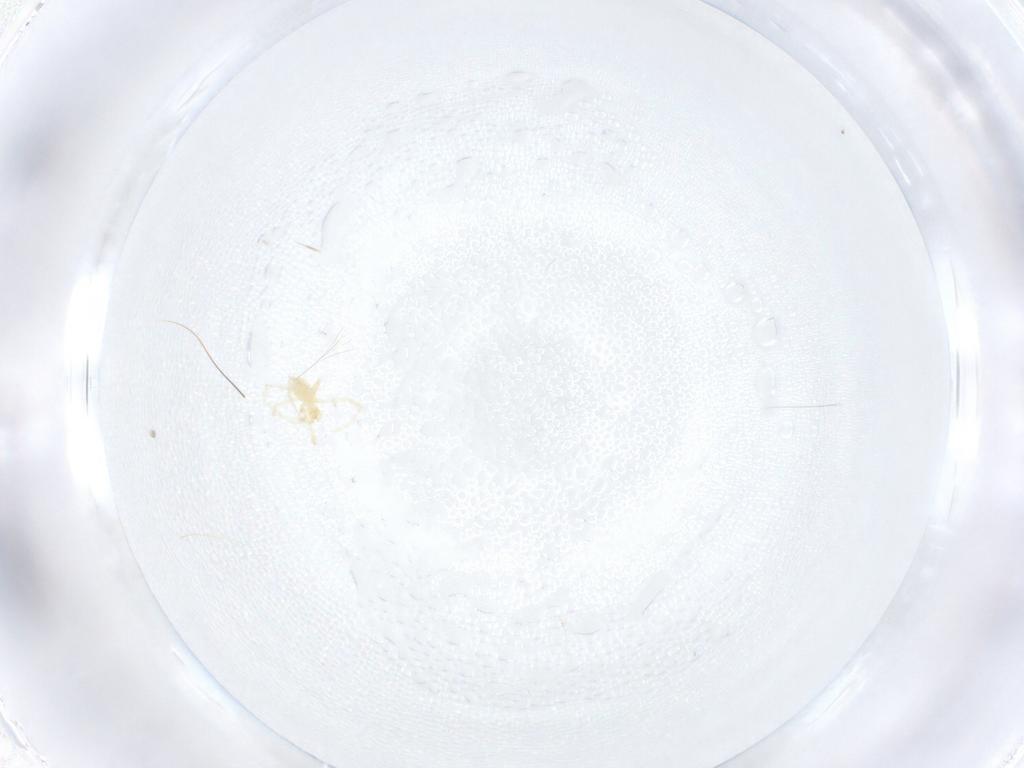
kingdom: Animalia
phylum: Arthropoda
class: Arachnida
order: Trombidiformes
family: Erythraeidae
